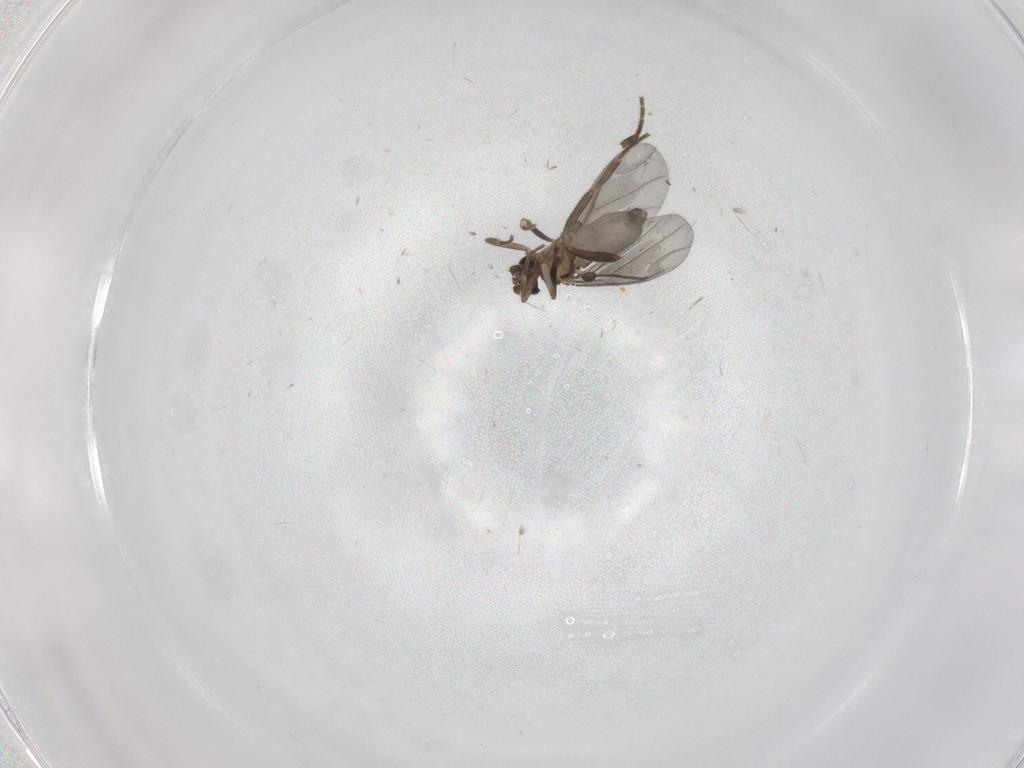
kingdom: Animalia
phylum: Arthropoda
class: Insecta
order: Diptera
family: Phoridae
